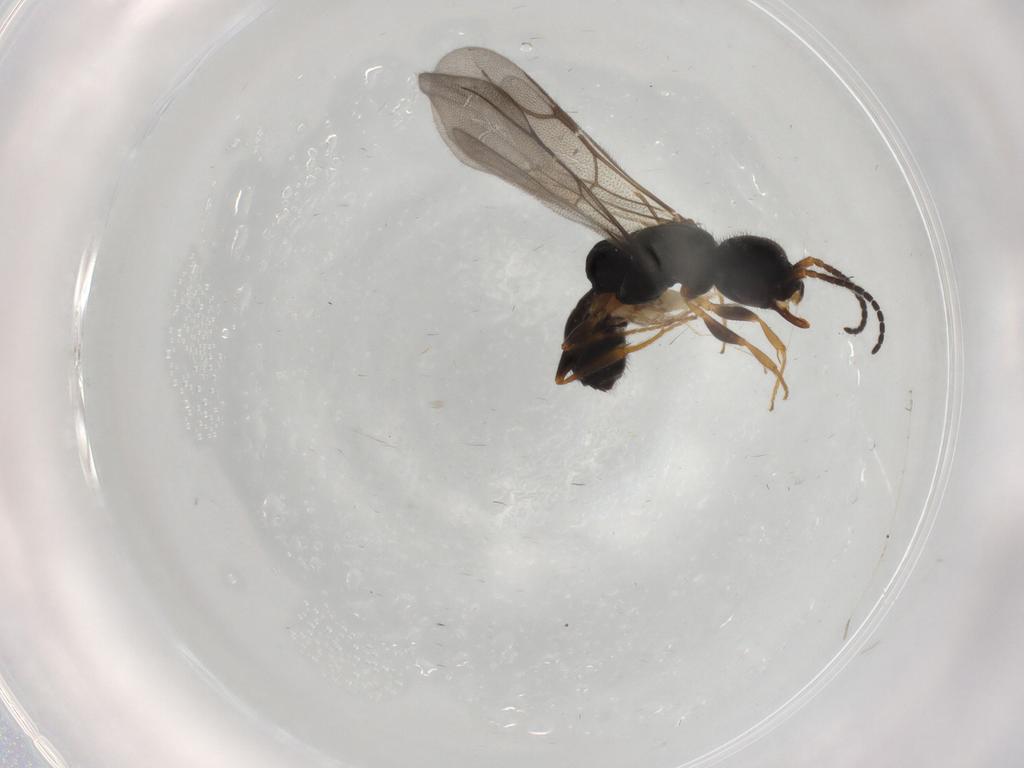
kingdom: Animalia
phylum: Arthropoda
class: Insecta
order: Hymenoptera
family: Bethylidae
